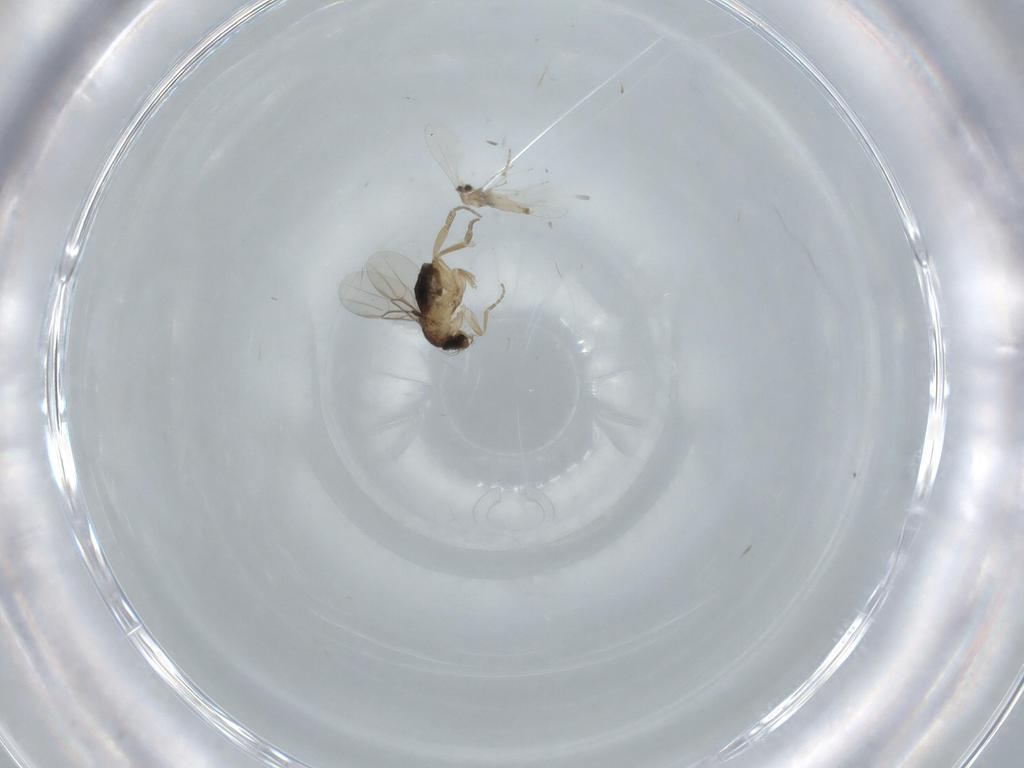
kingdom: Animalia
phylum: Arthropoda
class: Insecta
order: Diptera
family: Phoridae
